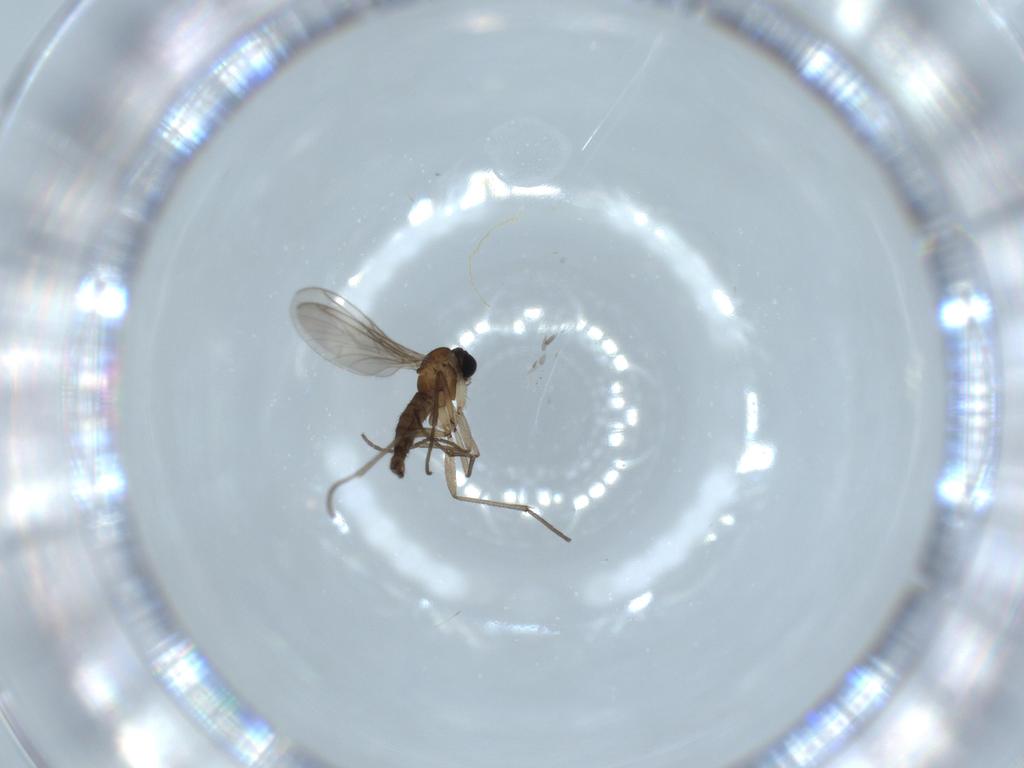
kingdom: Animalia
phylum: Arthropoda
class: Insecta
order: Diptera
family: Sciaridae
